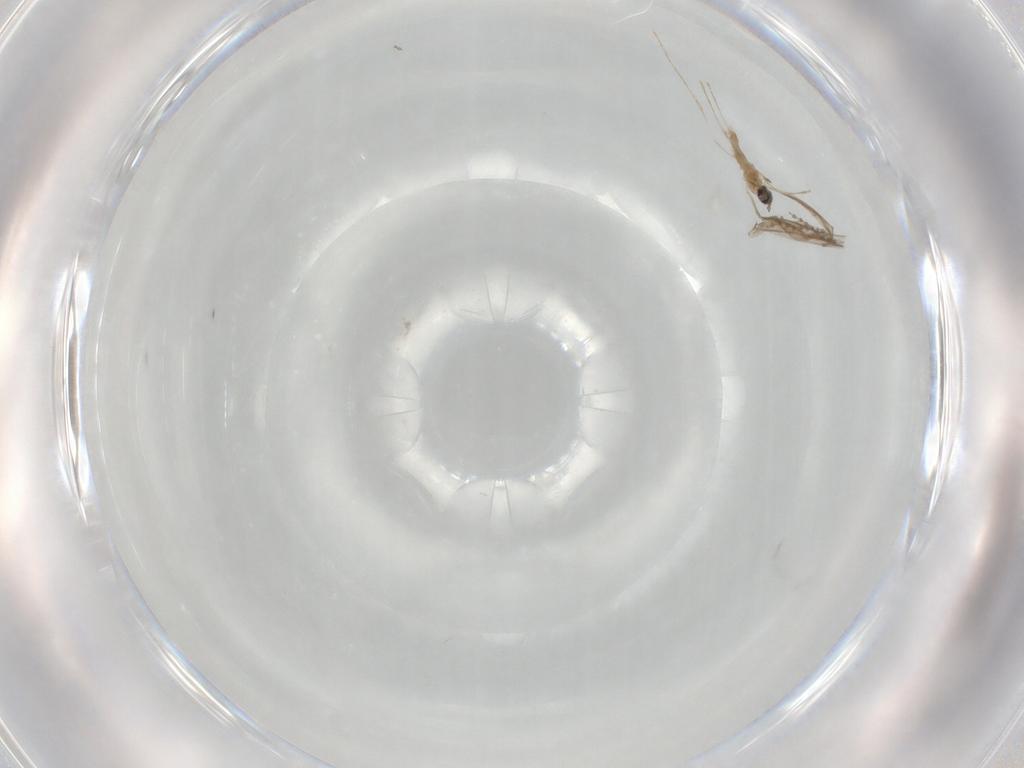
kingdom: Animalia
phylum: Arthropoda
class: Insecta
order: Diptera
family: Cecidomyiidae
